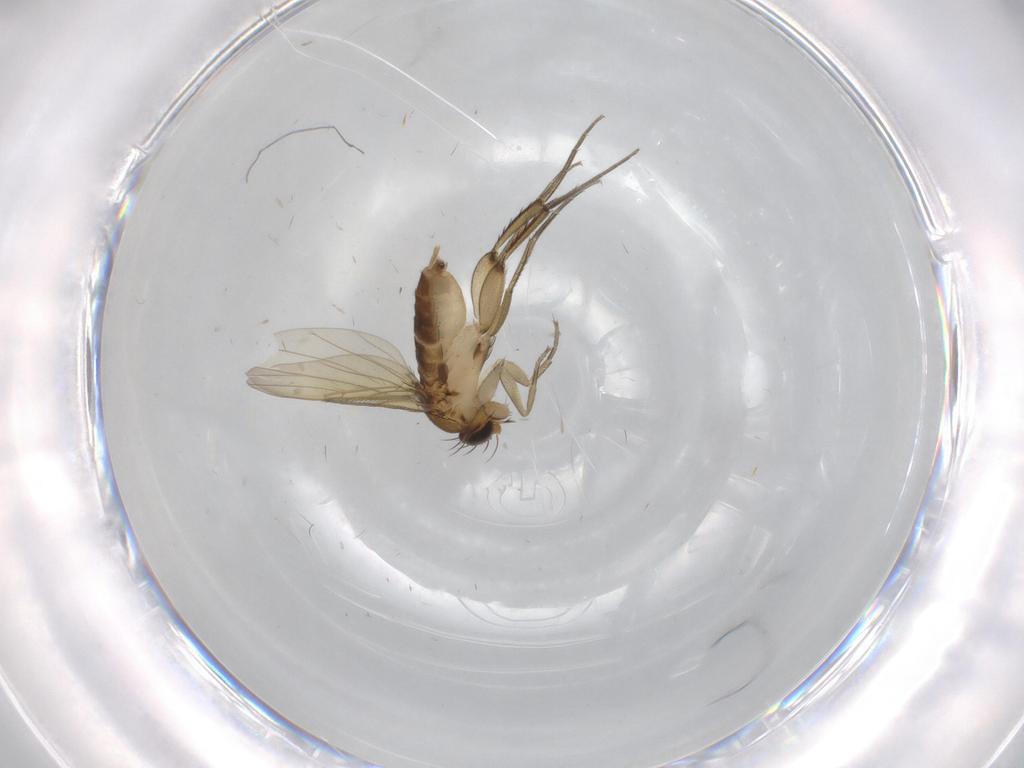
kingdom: Animalia
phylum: Arthropoda
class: Insecta
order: Diptera
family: Phoridae
